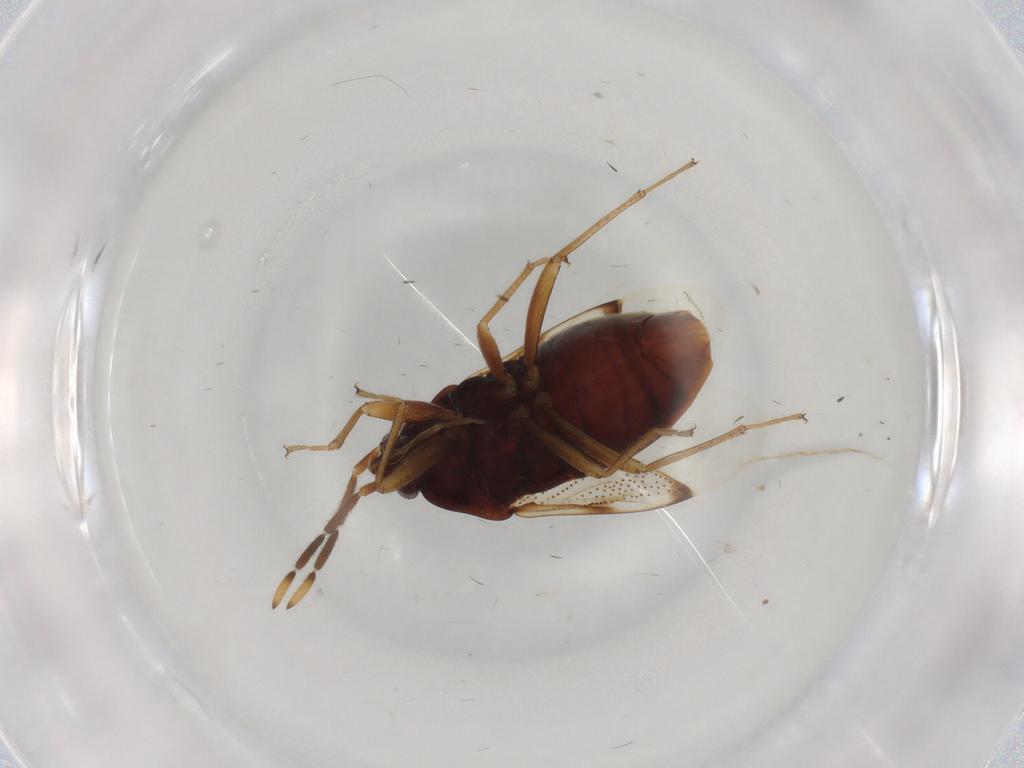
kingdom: Animalia
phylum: Arthropoda
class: Insecta
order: Hemiptera
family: Rhyparochromidae
